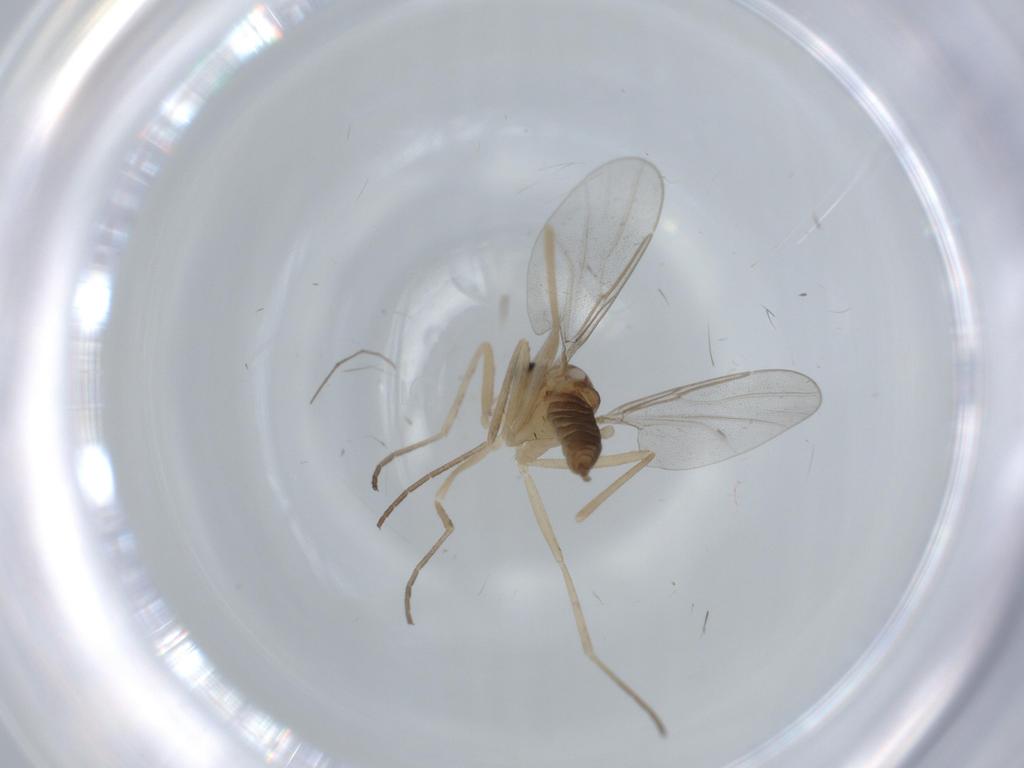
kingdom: Animalia
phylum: Arthropoda
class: Insecta
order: Diptera
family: Cecidomyiidae
